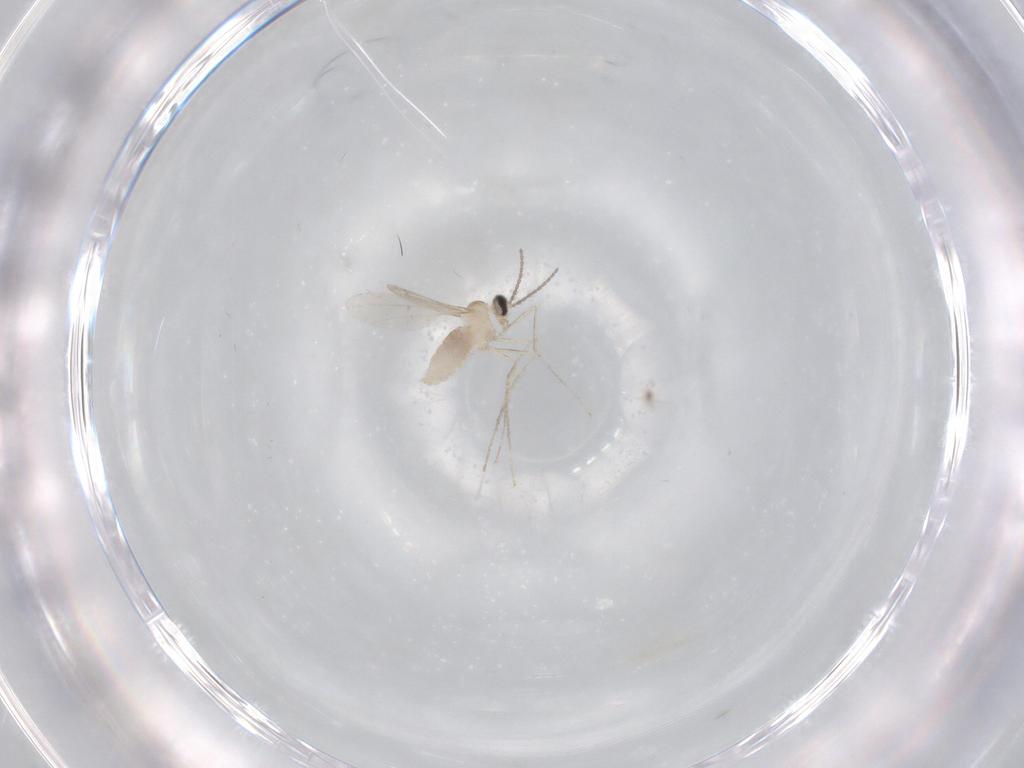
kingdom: Animalia
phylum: Arthropoda
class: Insecta
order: Diptera
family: Cecidomyiidae
